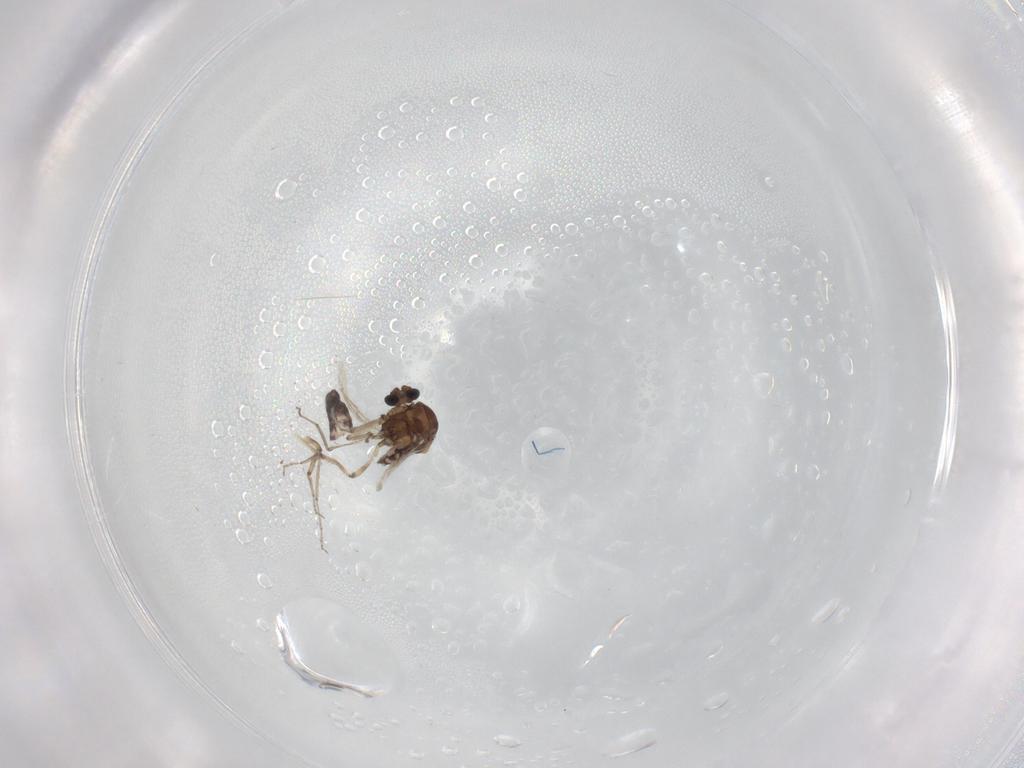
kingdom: Animalia
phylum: Arthropoda
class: Insecta
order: Diptera
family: Ceratopogonidae
